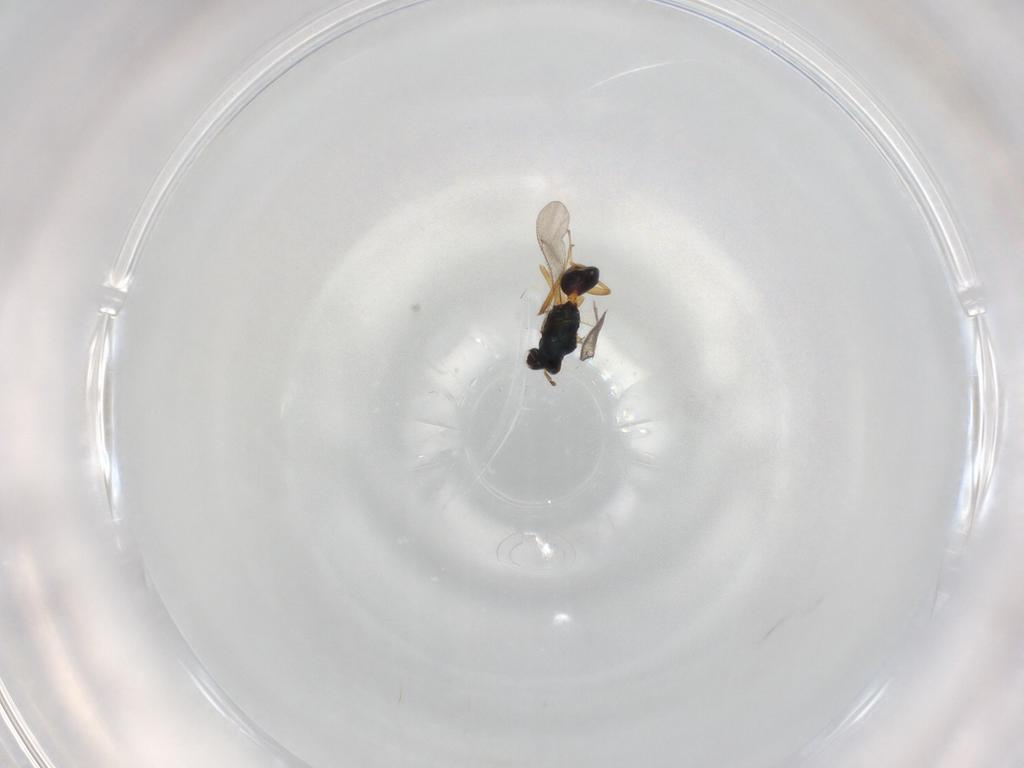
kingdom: Animalia
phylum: Arthropoda
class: Insecta
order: Hymenoptera
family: Eulophidae
